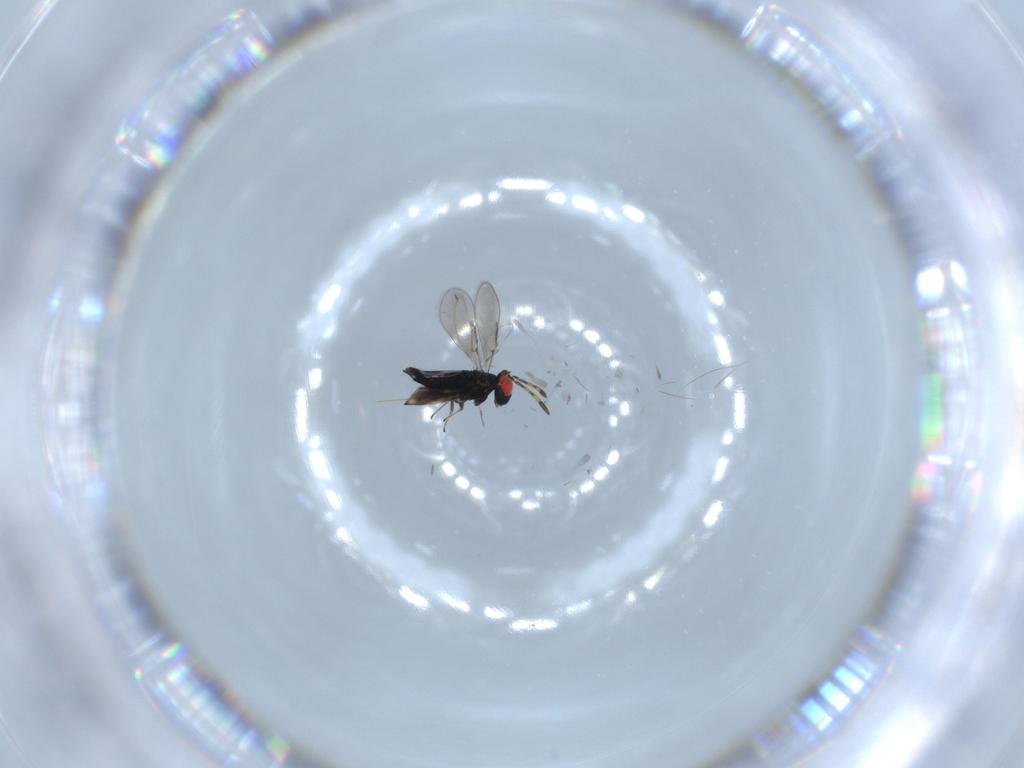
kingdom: Animalia
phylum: Arthropoda
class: Insecta
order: Hymenoptera
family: Trichogrammatidae
